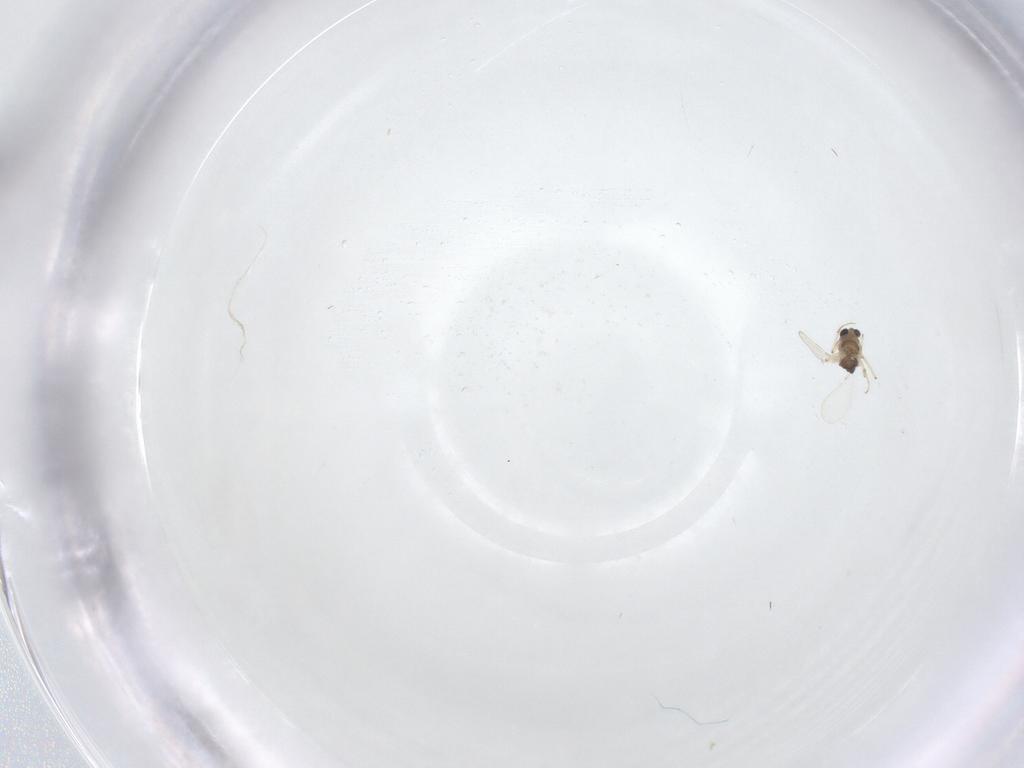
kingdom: Animalia
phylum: Arthropoda
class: Insecta
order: Diptera
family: Chironomidae
